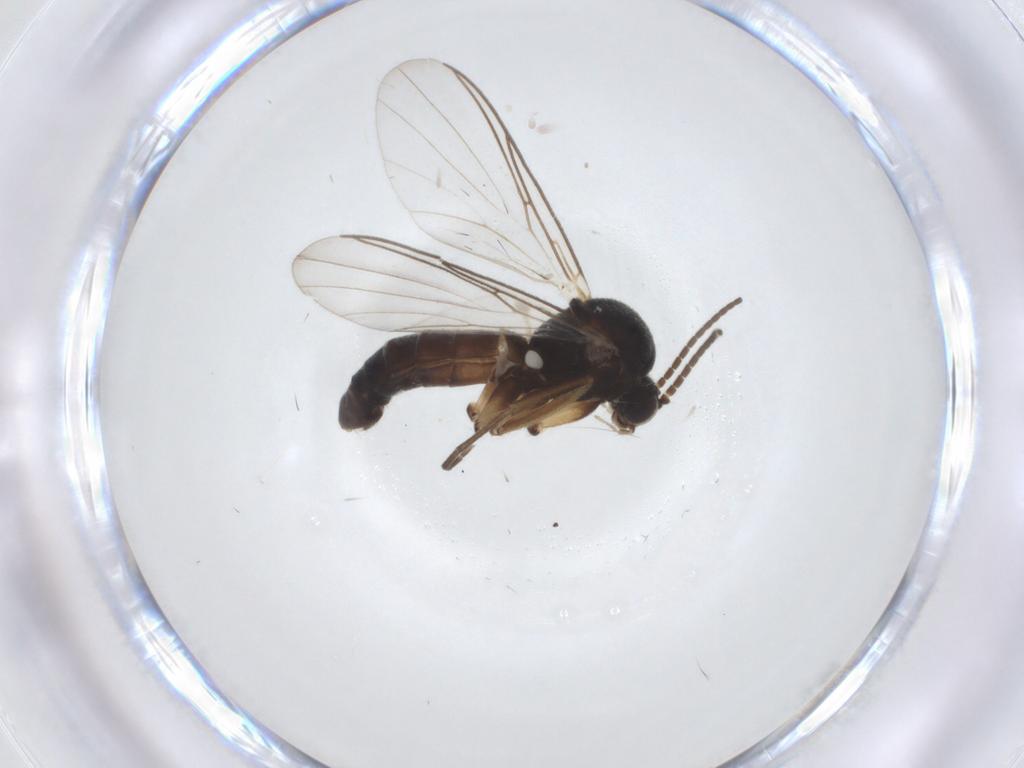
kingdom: Animalia
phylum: Arthropoda
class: Insecta
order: Diptera
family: Mycetophilidae
